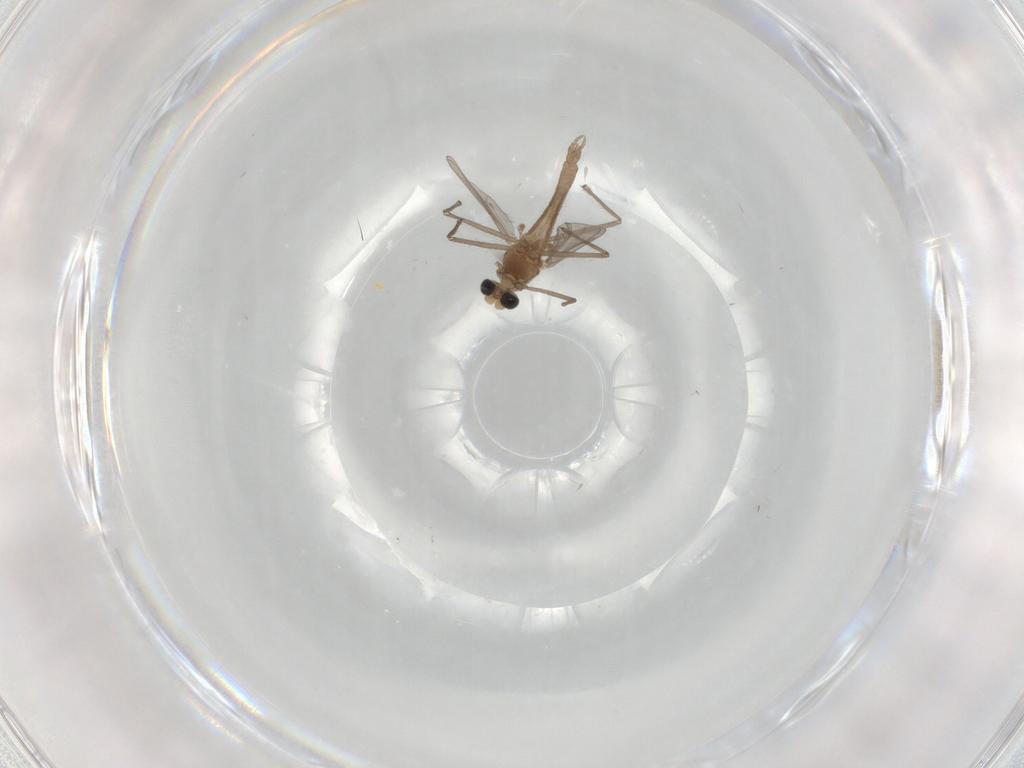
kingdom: Animalia
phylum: Arthropoda
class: Insecta
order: Diptera
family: Chironomidae
